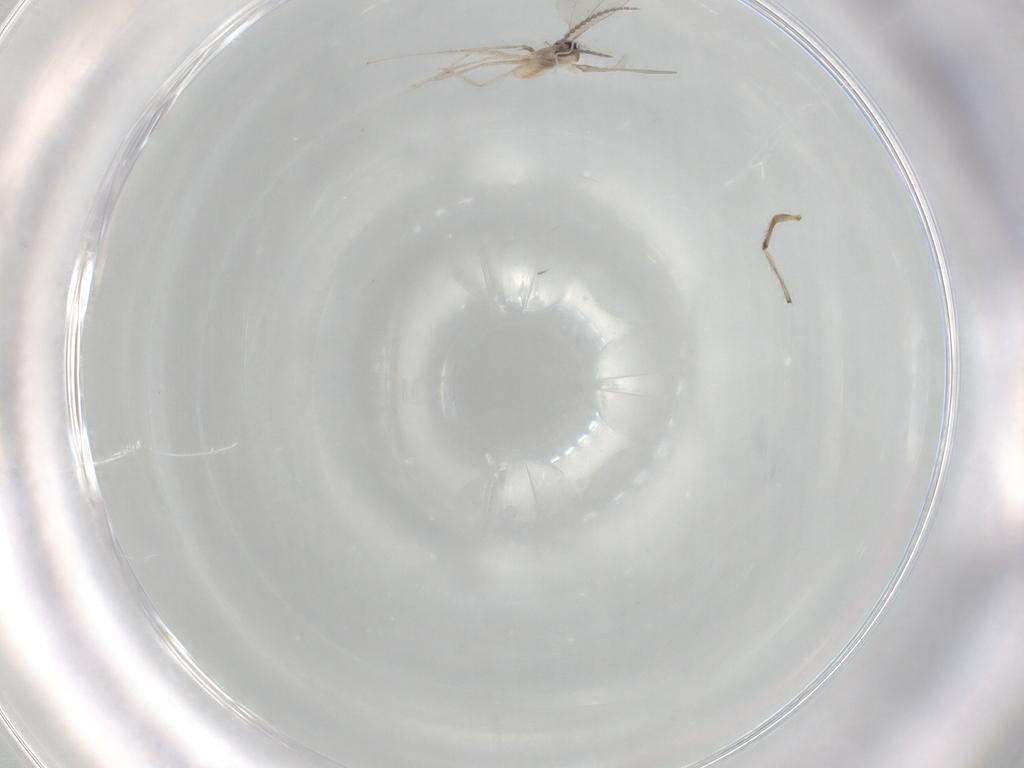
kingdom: Animalia
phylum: Arthropoda
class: Insecta
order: Diptera
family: Cecidomyiidae
